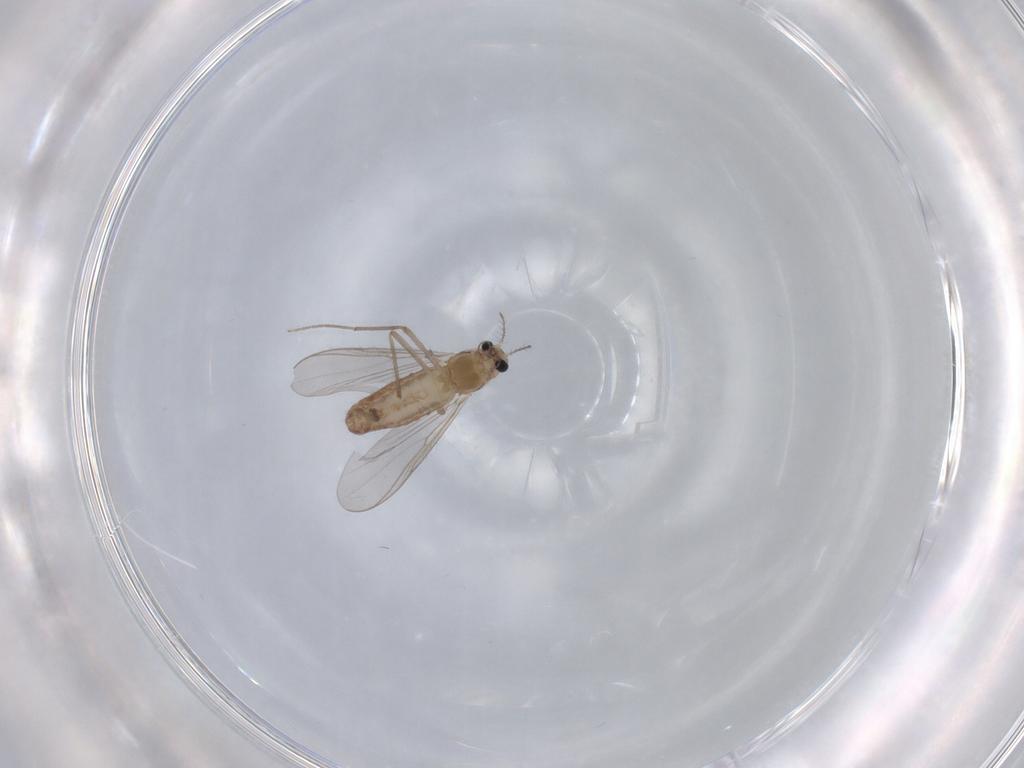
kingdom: Animalia
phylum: Arthropoda
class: Insecta
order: Diptera
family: Chironomidae
